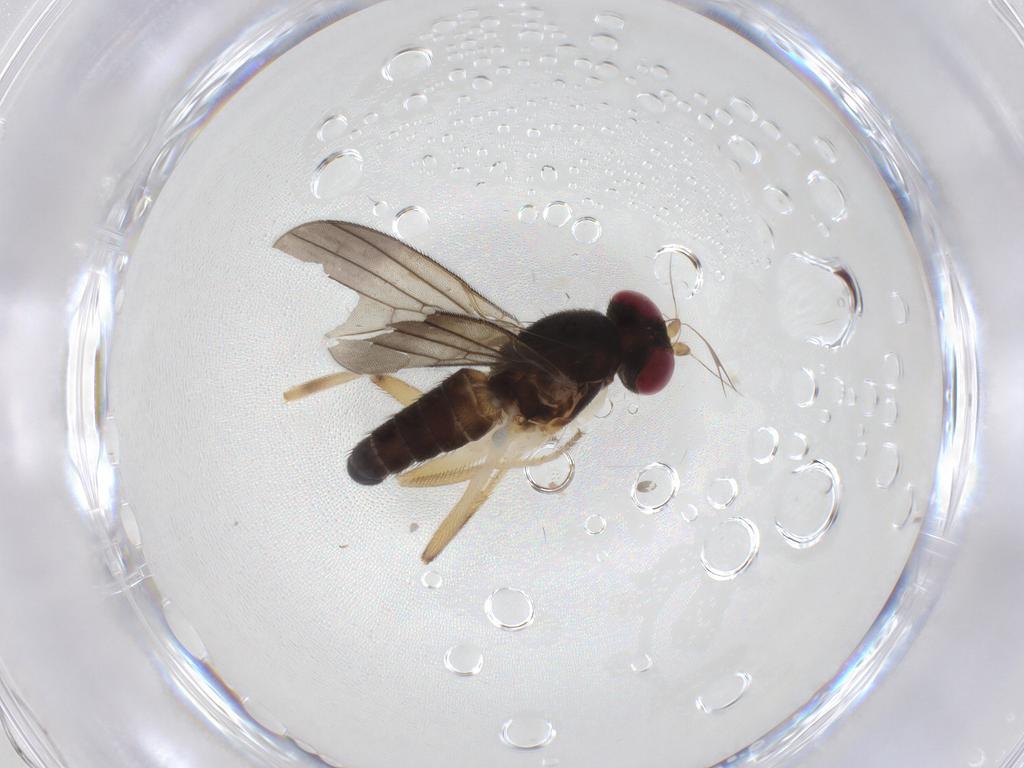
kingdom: Animalia
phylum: Arthropoda
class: Insecta
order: Diptera
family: Clusiidae
